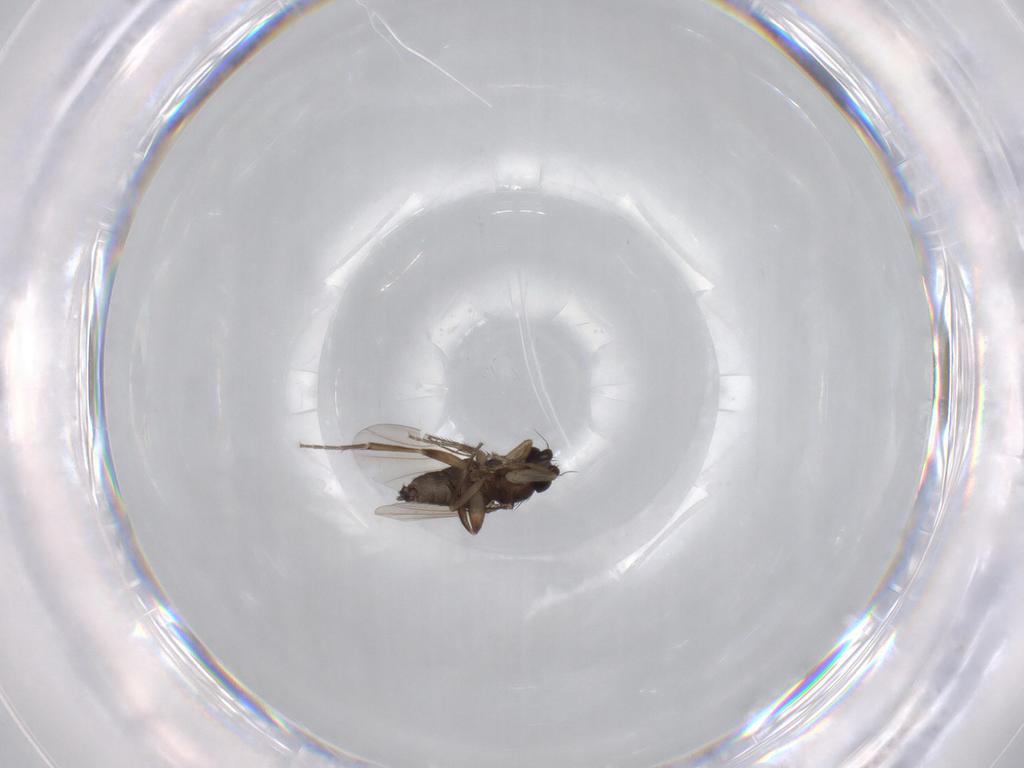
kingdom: Animalia
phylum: Arthropoda
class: Insecta
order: Diptera
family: Phoridae
